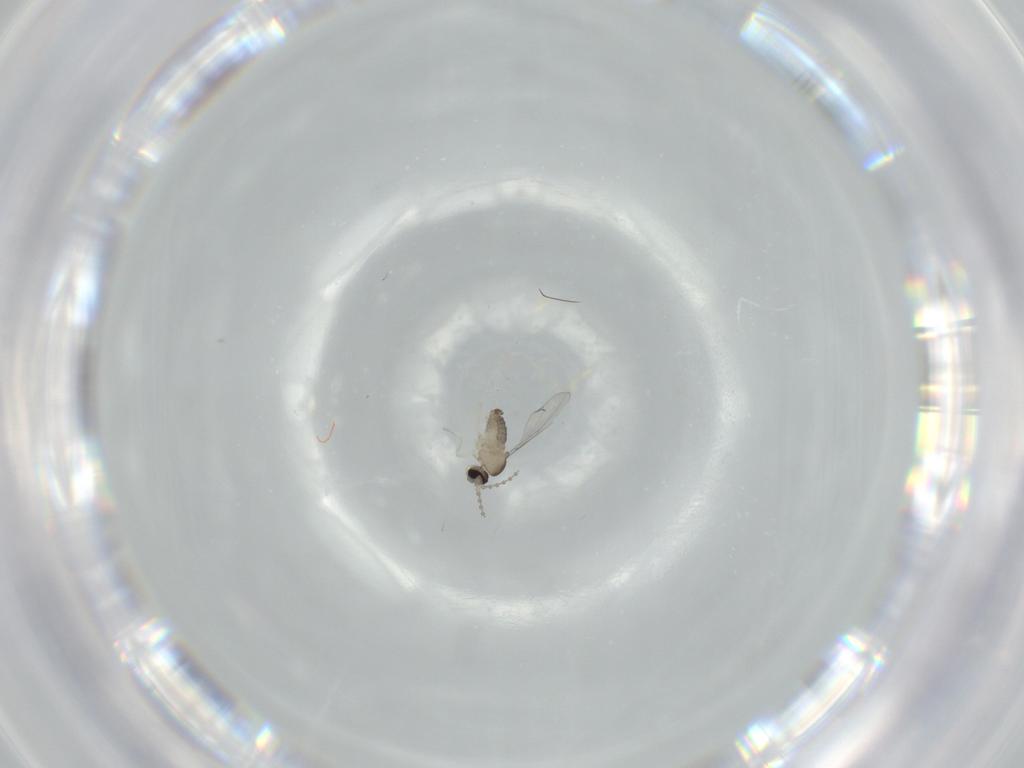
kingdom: Animalia
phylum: Arthropoda
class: Insecta
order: Diptera
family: Cecidomyiidae
